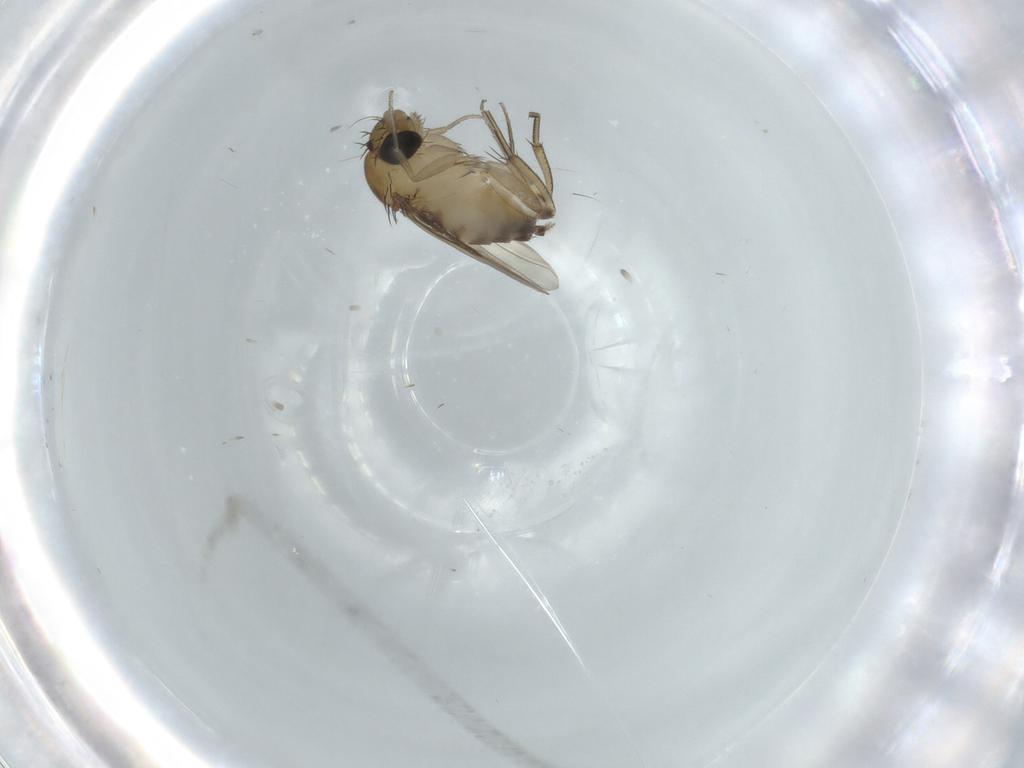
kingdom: Animalia
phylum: Arthropoda
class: Insecta
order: Diptera
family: Phoridae
